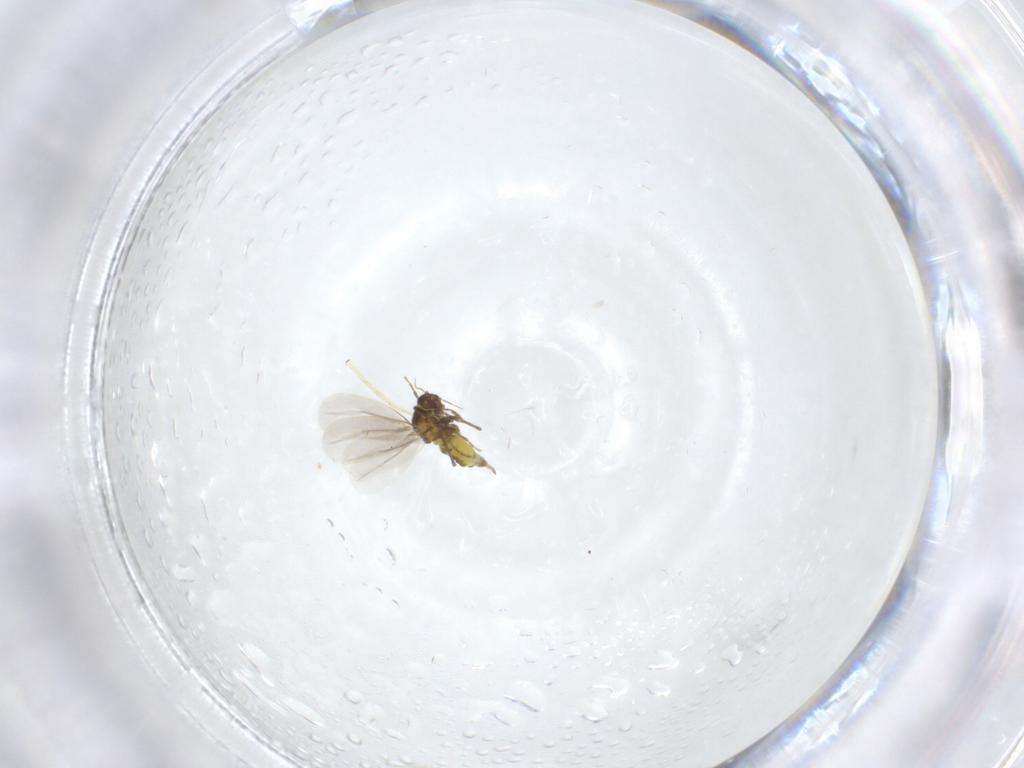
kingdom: Animalia
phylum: Arthropoda
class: Insecta
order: Hemiptera
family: Aleyrodidae
